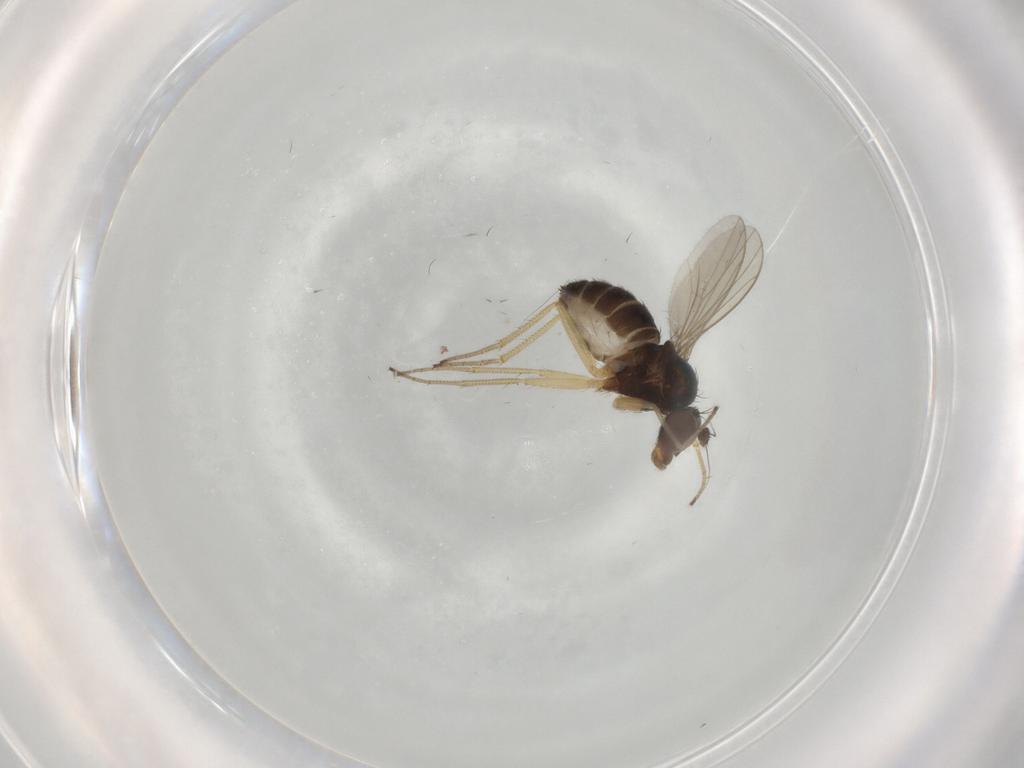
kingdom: Animalia
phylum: Arthropoda
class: Insecta
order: Diptera
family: Dolichopodidae
